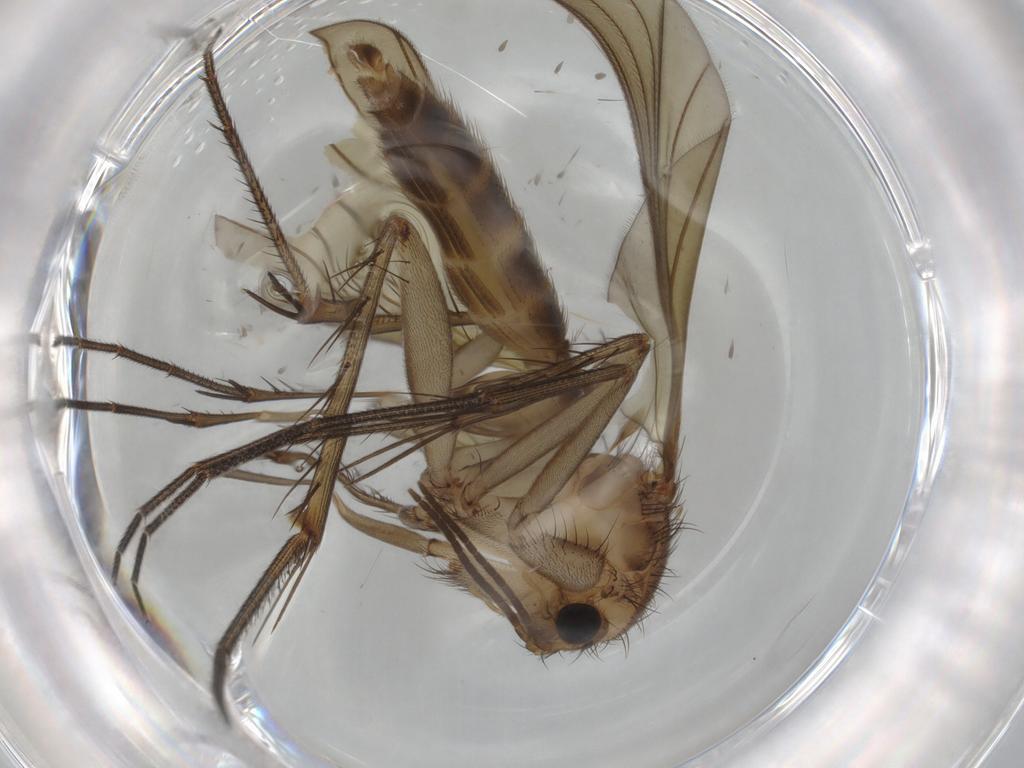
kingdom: Animalia
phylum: Arthropoda
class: Insecta
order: Diptera
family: Mycetophilidae
